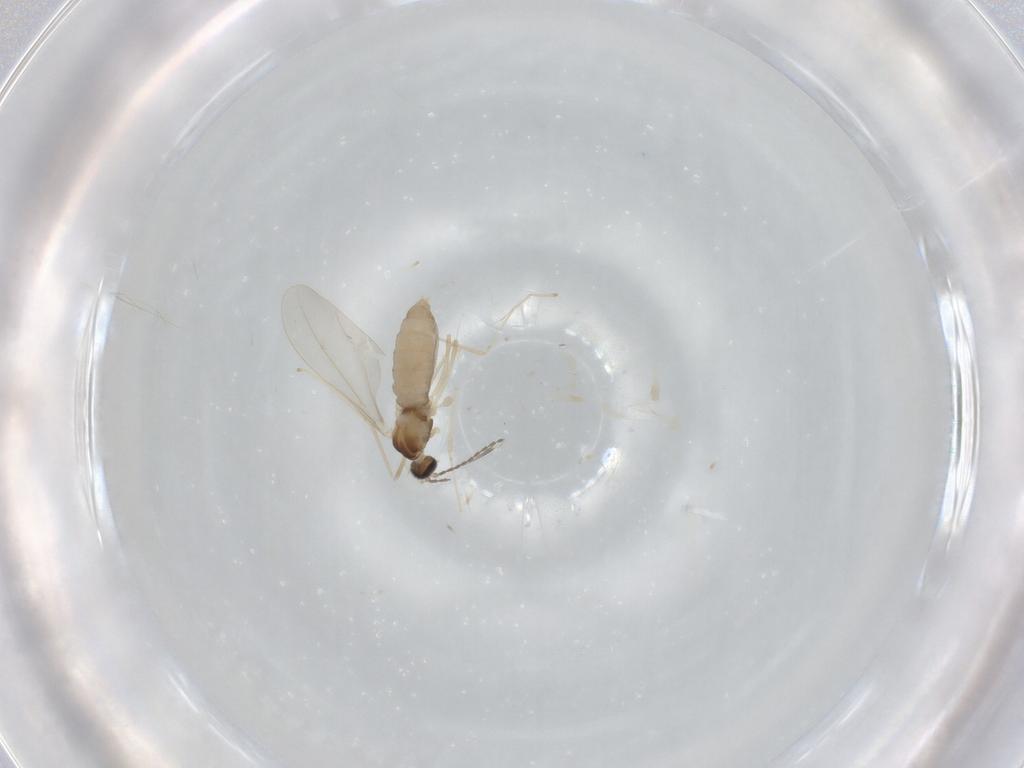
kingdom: Animalia
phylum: Arthropoda
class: Insecta
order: Diptera
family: Cecidomyiidae
